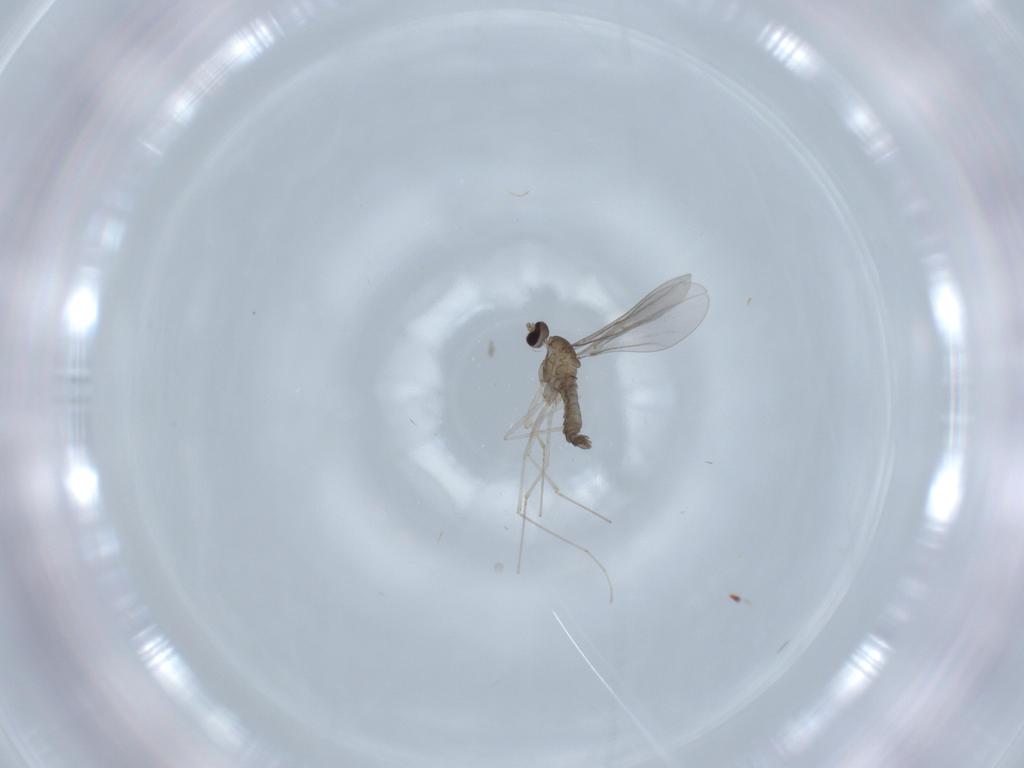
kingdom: Animalia
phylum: Arthropoda
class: Insecta
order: Diptera
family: Cecidomyiidae
